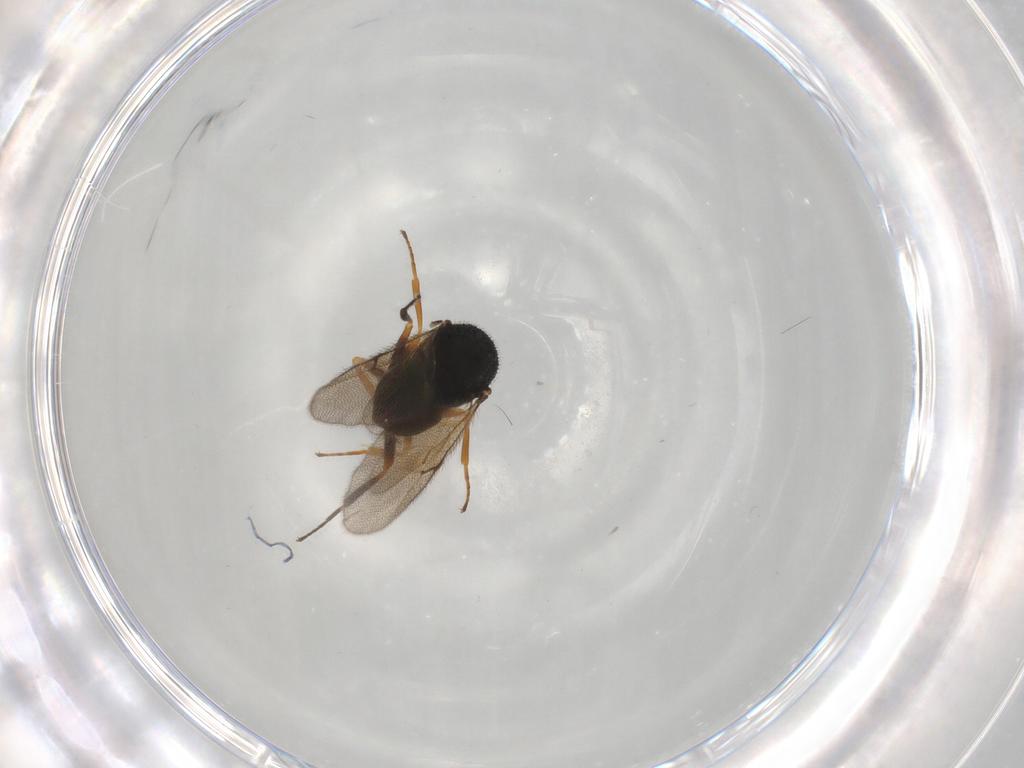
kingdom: Animalia
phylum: Arthropoda
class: Insecta
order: Hymenoptera
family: Scelionidae
